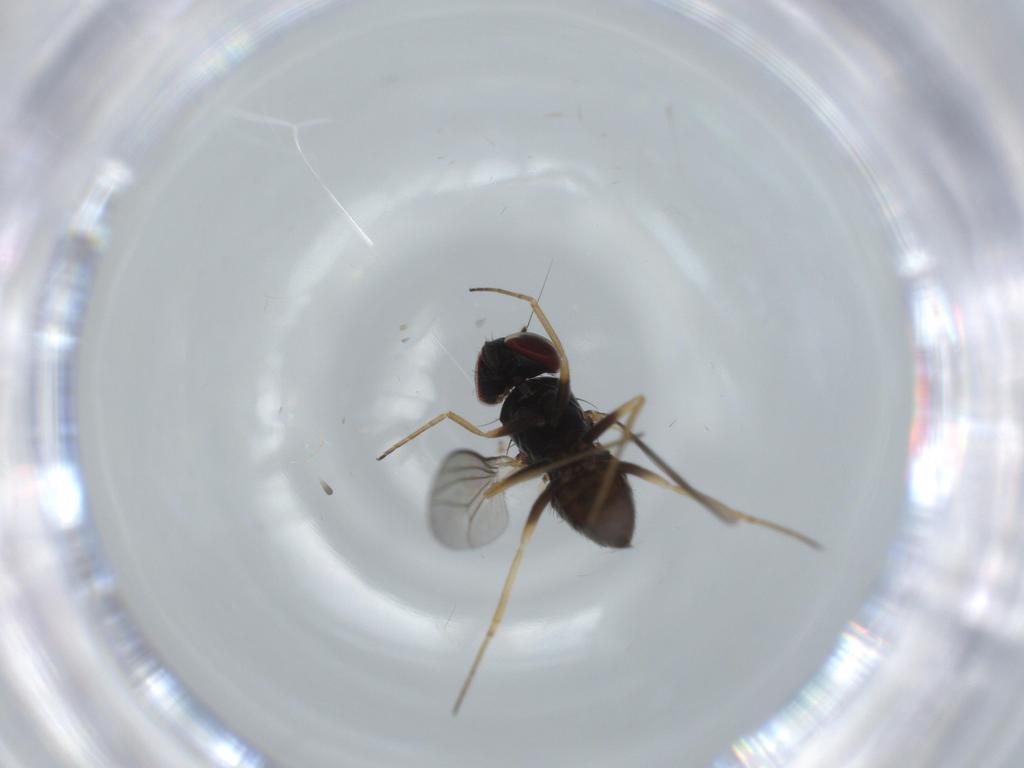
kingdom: Animalia
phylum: Arthropoda
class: Insecta
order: Diptera
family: Dolichopodidae
